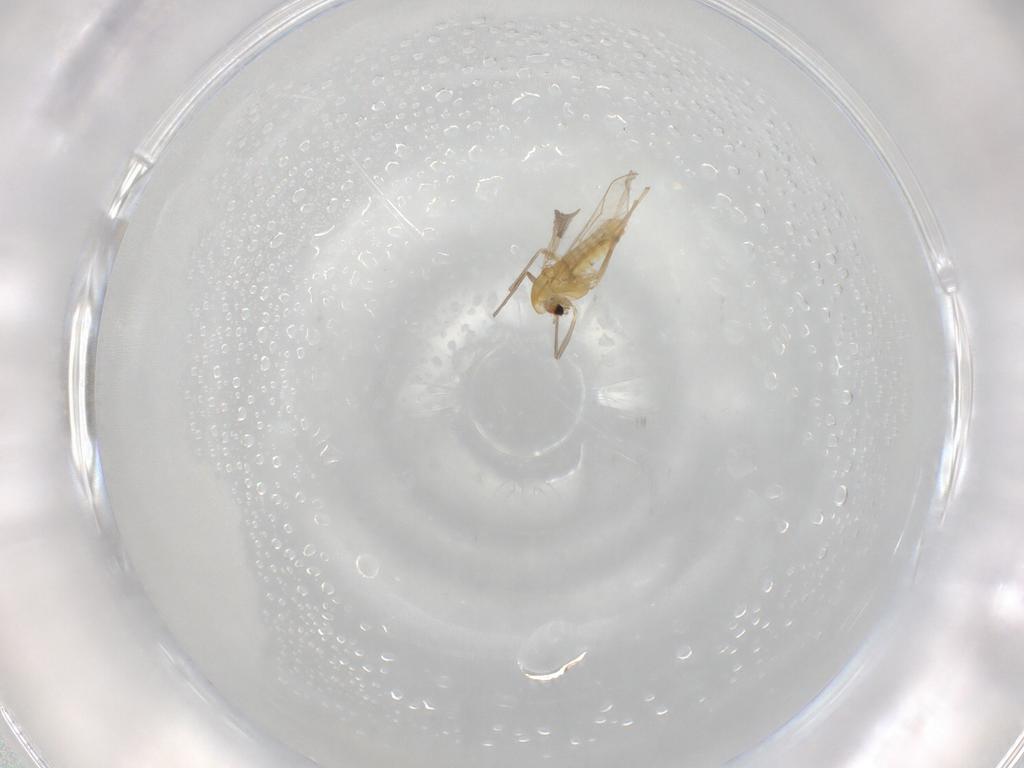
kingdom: Animalia
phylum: Arthropoda
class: Insecta
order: Diptera
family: Chironomidae
